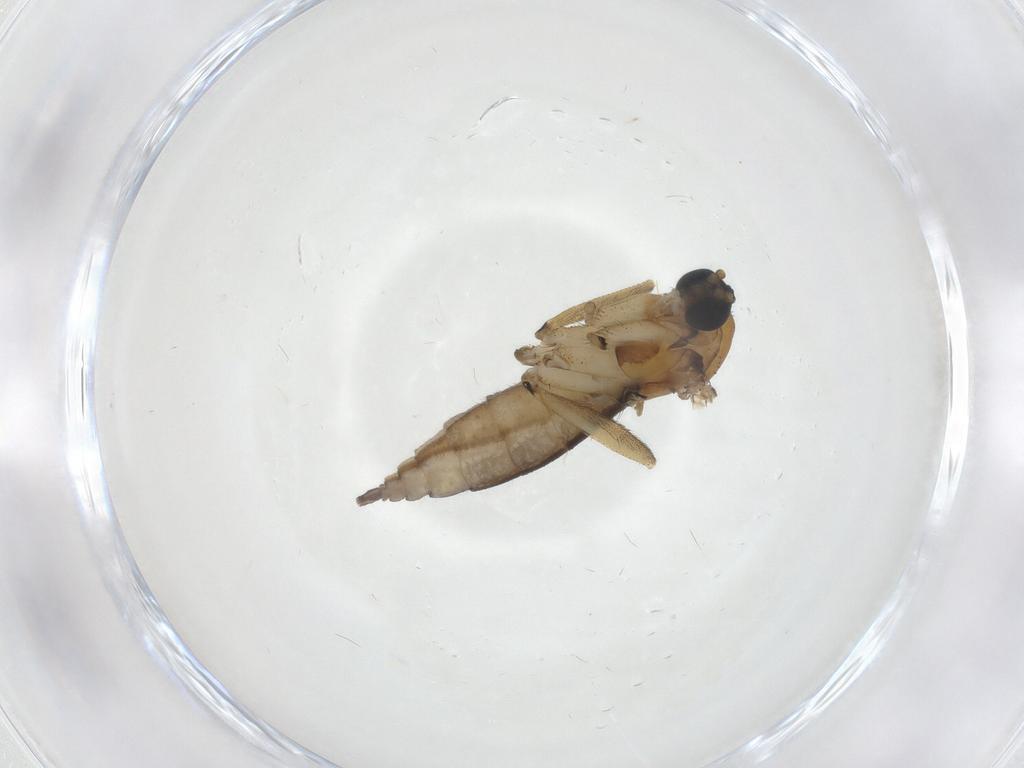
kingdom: Animalia
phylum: Arthropoda
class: Insecta
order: Diptera
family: Sciaridae
